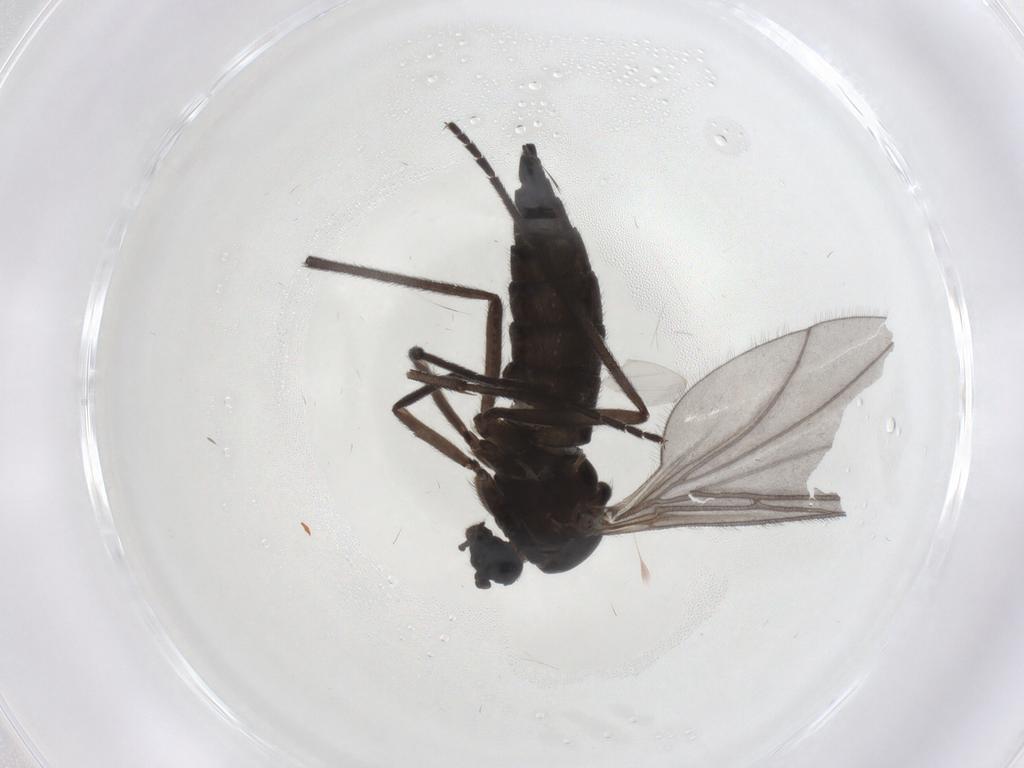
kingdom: Animalia
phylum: Arthropoda
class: Insecta
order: Diptera
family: Sciaridae
